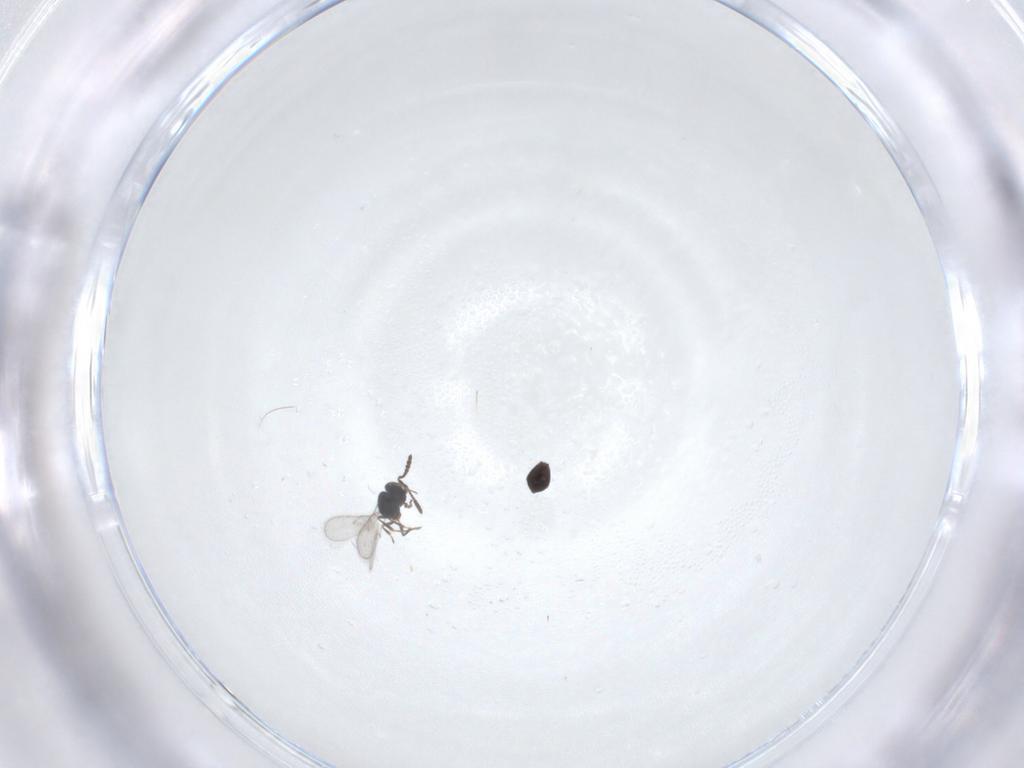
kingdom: Animalia
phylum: Arthropoda
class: Insecta
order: Hymenoptera
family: Scelionidae
